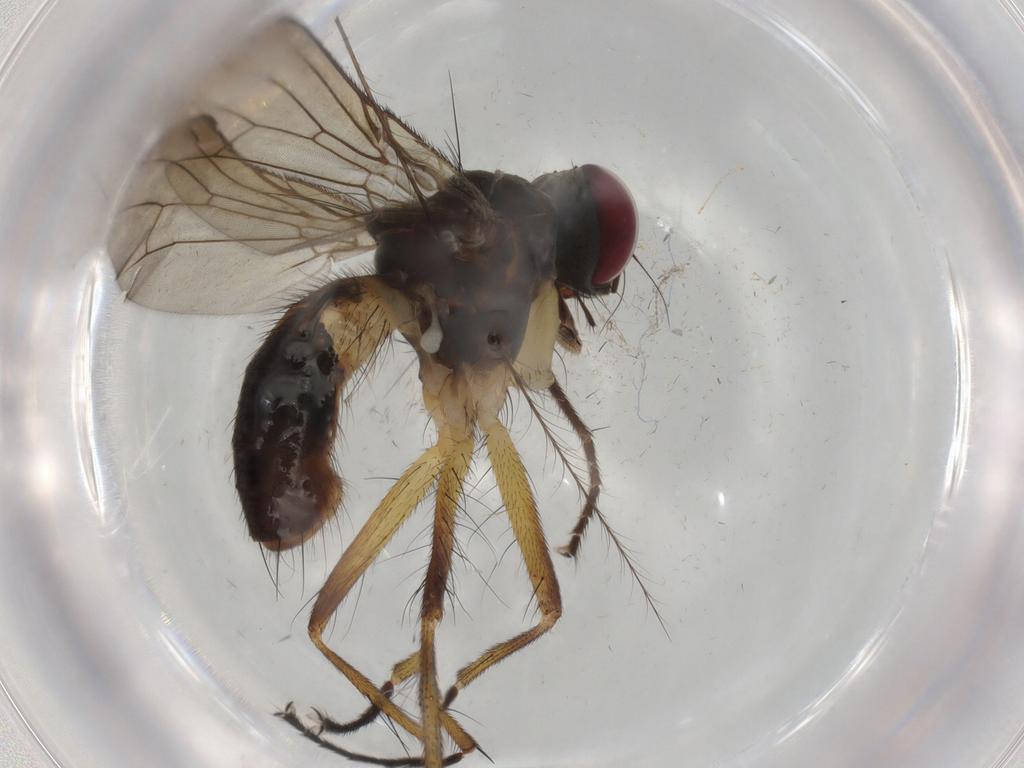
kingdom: Animalia
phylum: Arthropoda
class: Insecta
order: Diptera
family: Muscidae
